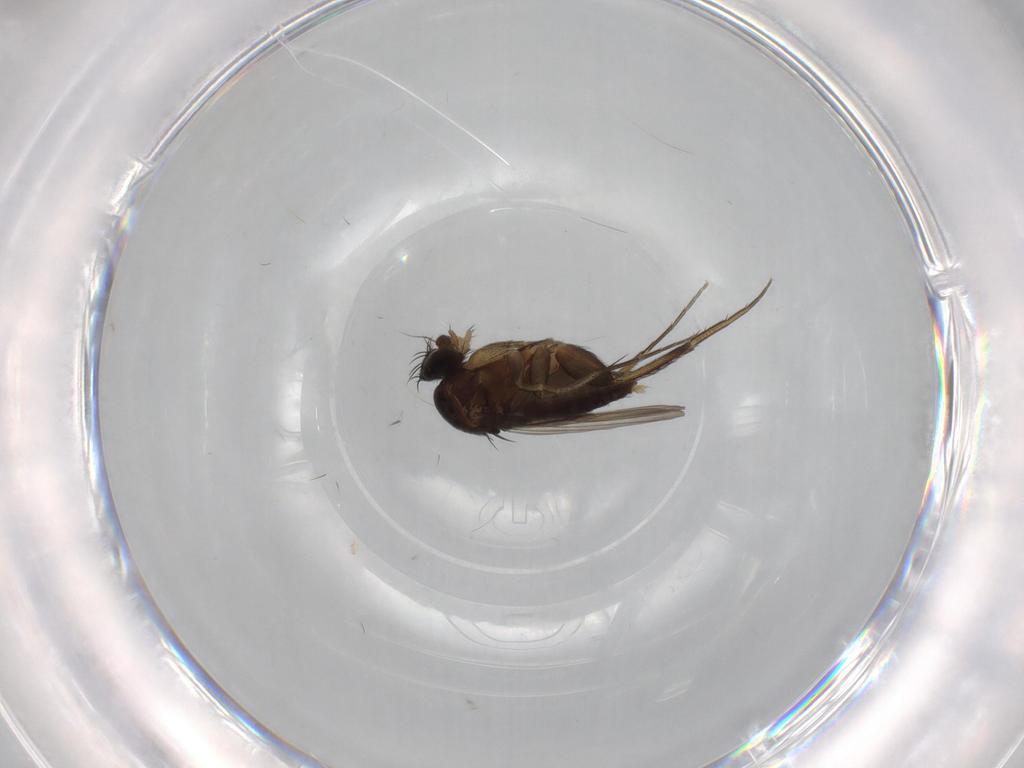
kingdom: Animalia
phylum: Arthropoda
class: Insecta
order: Diptera
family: Phoridae
